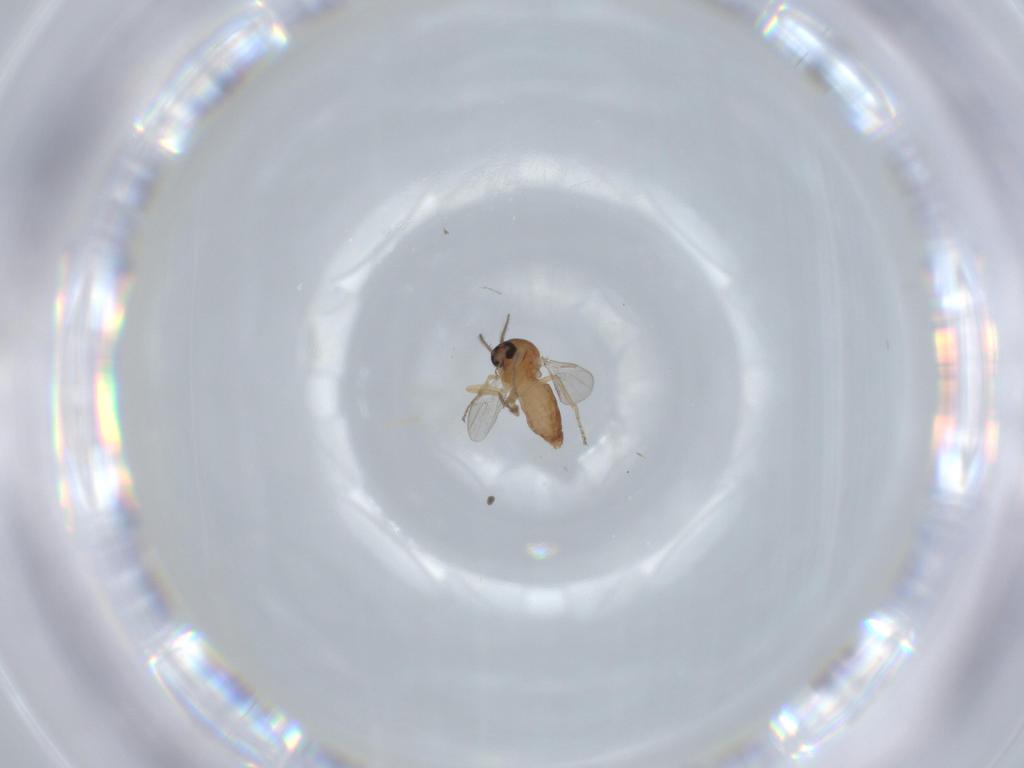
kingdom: Animalia
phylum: Arthropoda
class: Insecta
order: Diptera
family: Ceratopogonidae
